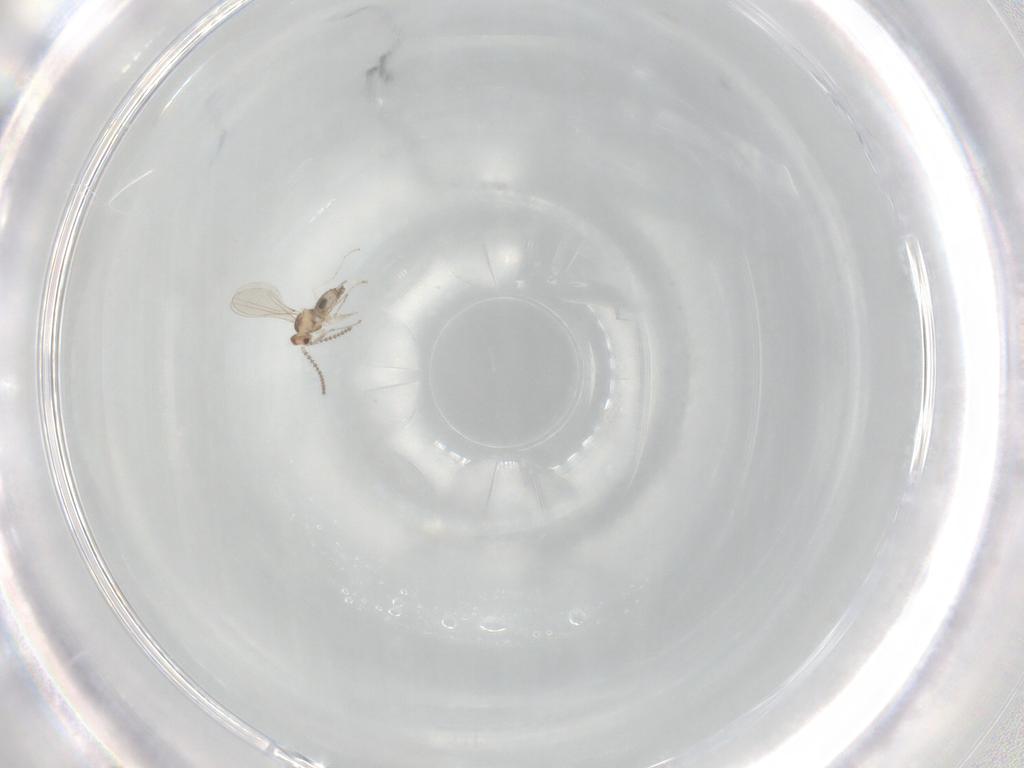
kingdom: Animalia
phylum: Arthropoda
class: Insecta
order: Diptera
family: Cecidomyiidae
